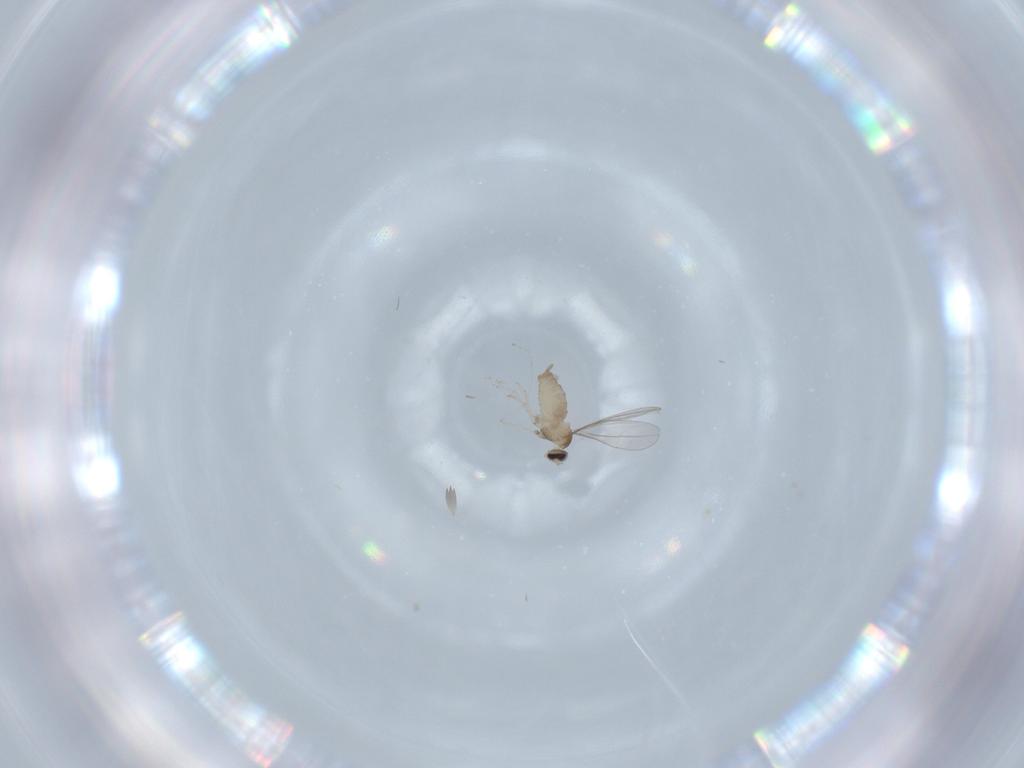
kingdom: Animalia
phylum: Arthropoda
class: Insecta
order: Diptera
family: Cecidomyiidae
